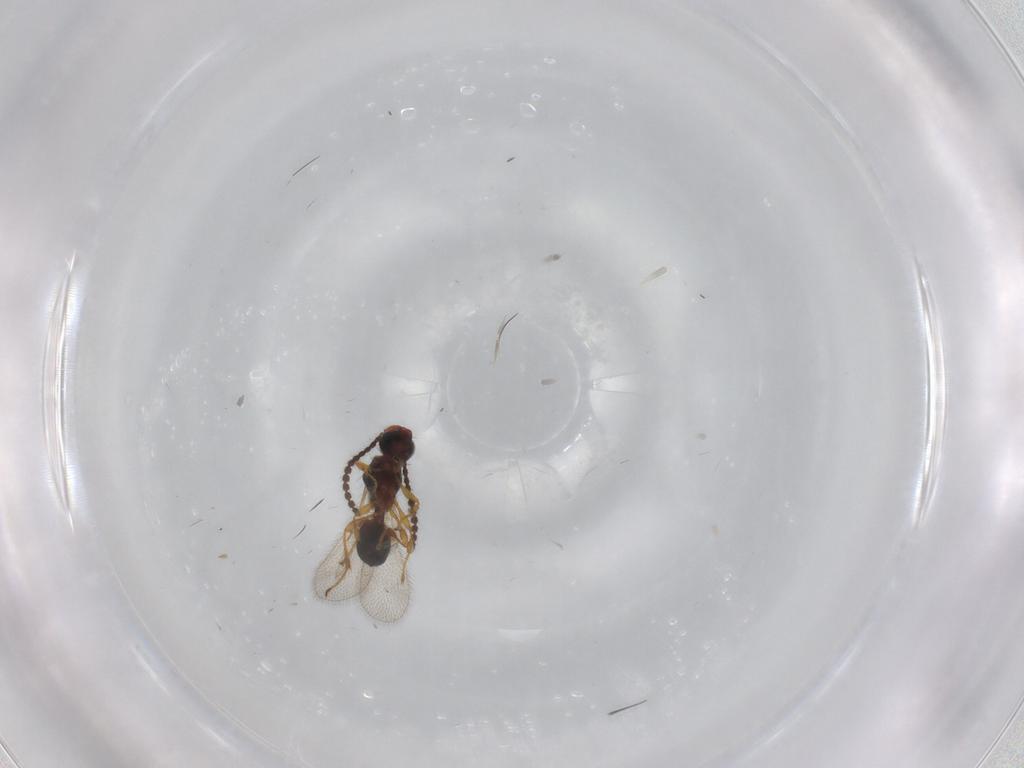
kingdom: Animalia
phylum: Arthropoda
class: Insecta
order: Hymenoptera
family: Diapriidae
